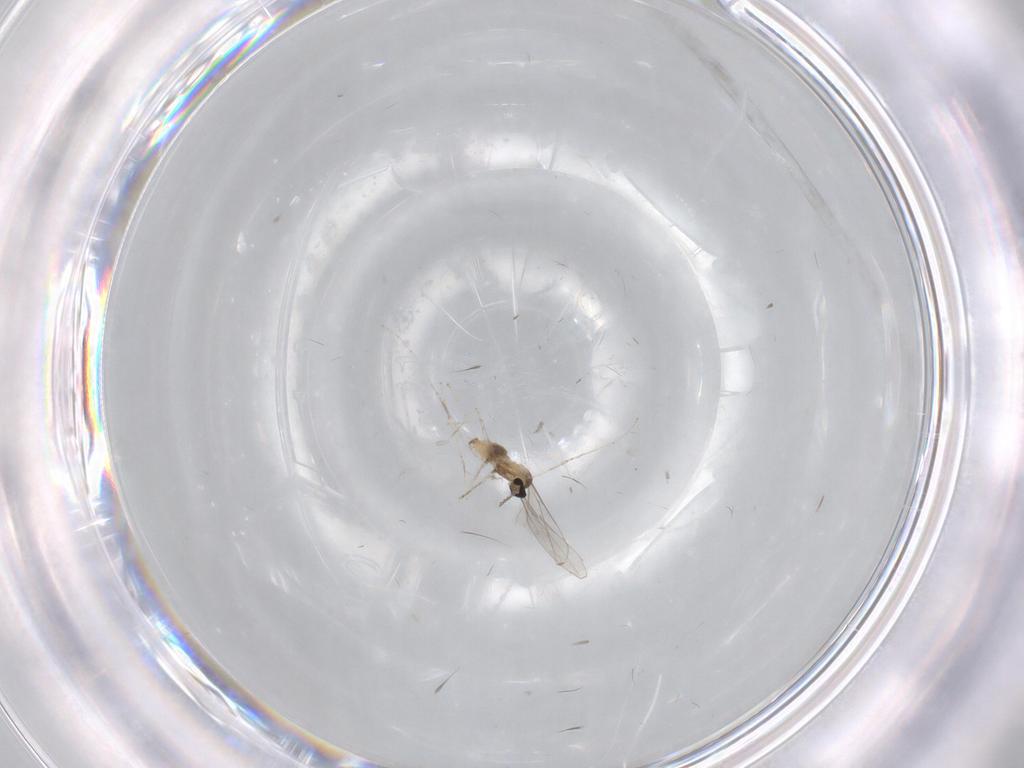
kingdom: Animalia
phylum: Arthropoda
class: Insecta
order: Diptera
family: Cecidomyiidae
